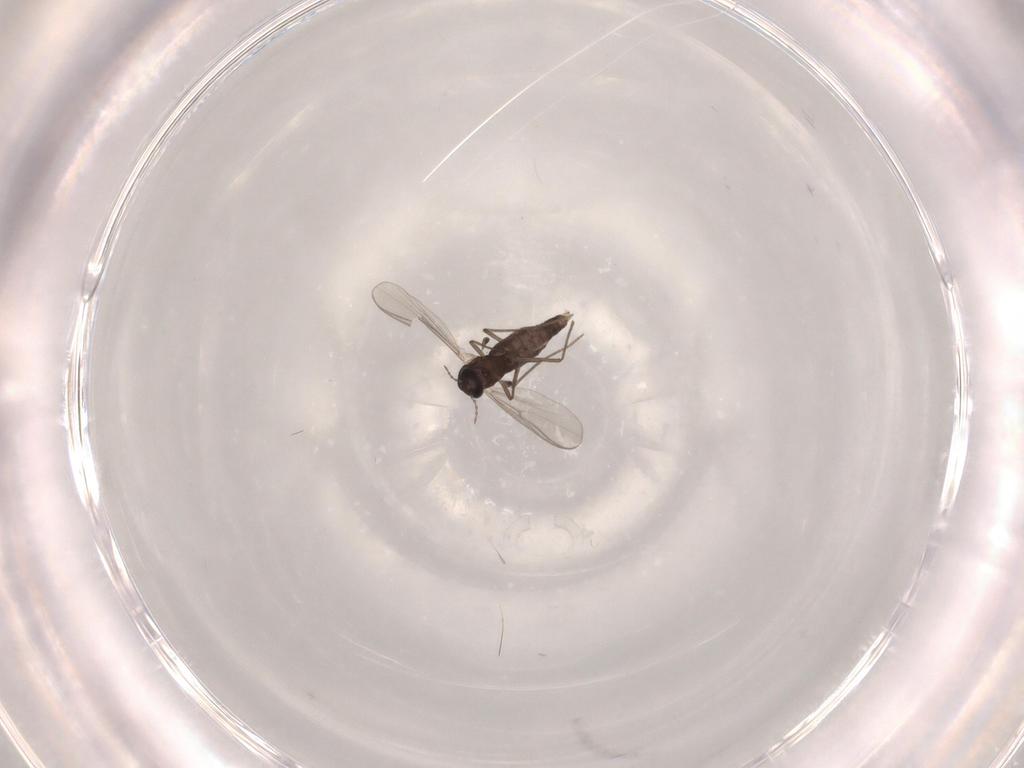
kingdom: Animalia
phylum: Arthropoda
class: Insecta
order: Diptera
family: Chironomidae
